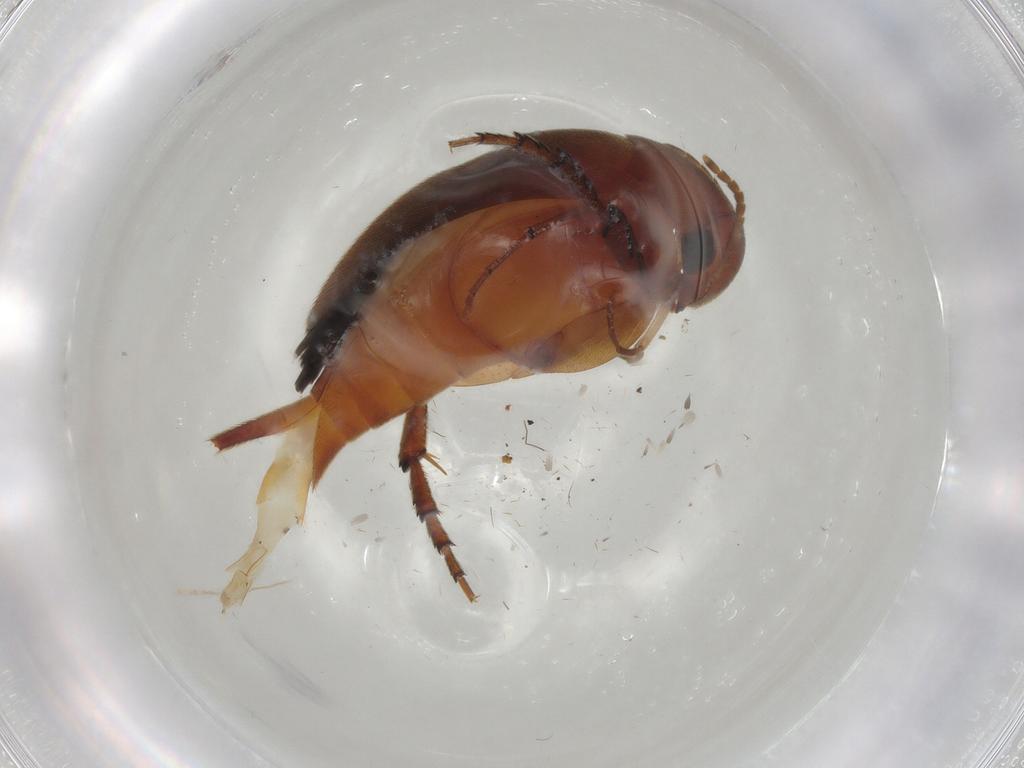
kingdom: Animalia
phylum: Arthropoda
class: Insecta
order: Coleoptera
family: Mordellidae
